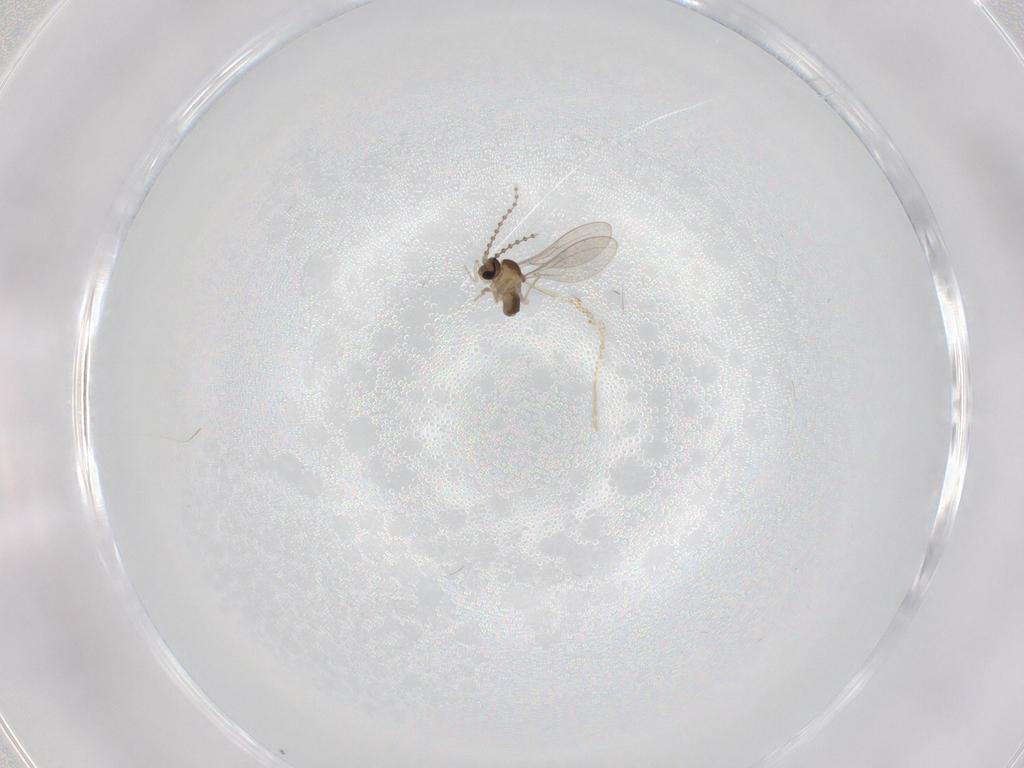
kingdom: Animalia
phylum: Arthropoda
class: Insecta
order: Diptera
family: Cecidomyiidae
